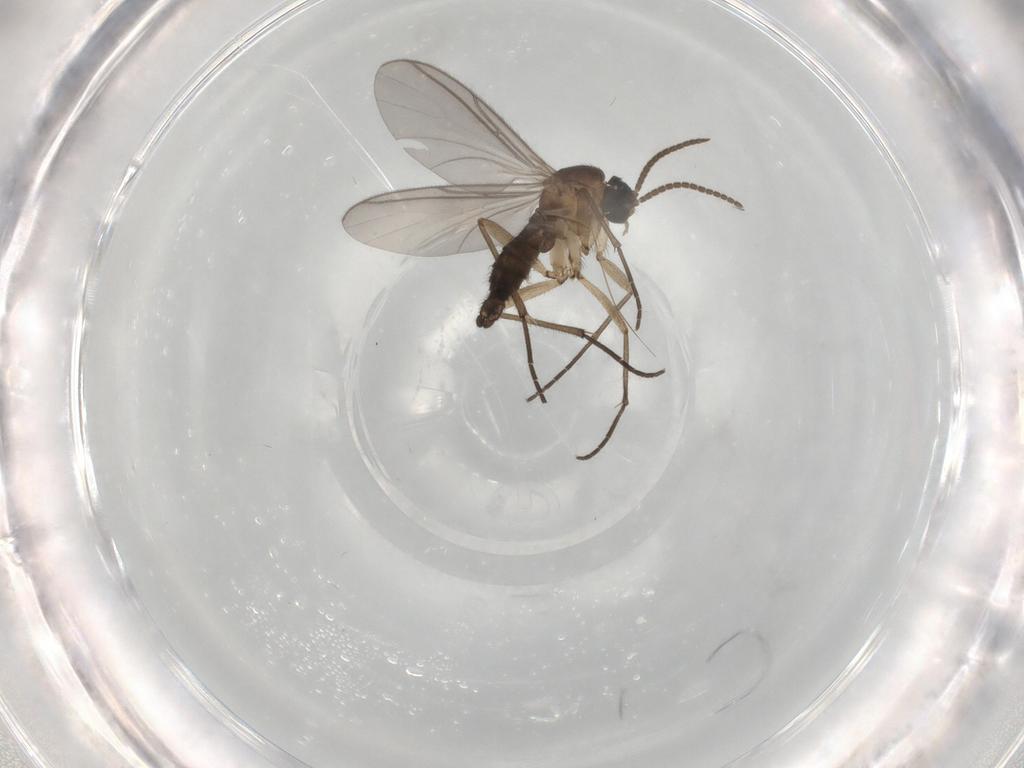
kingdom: Animalia
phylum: Arthropoda
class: Insecta
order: Diptera
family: Sciaridae
